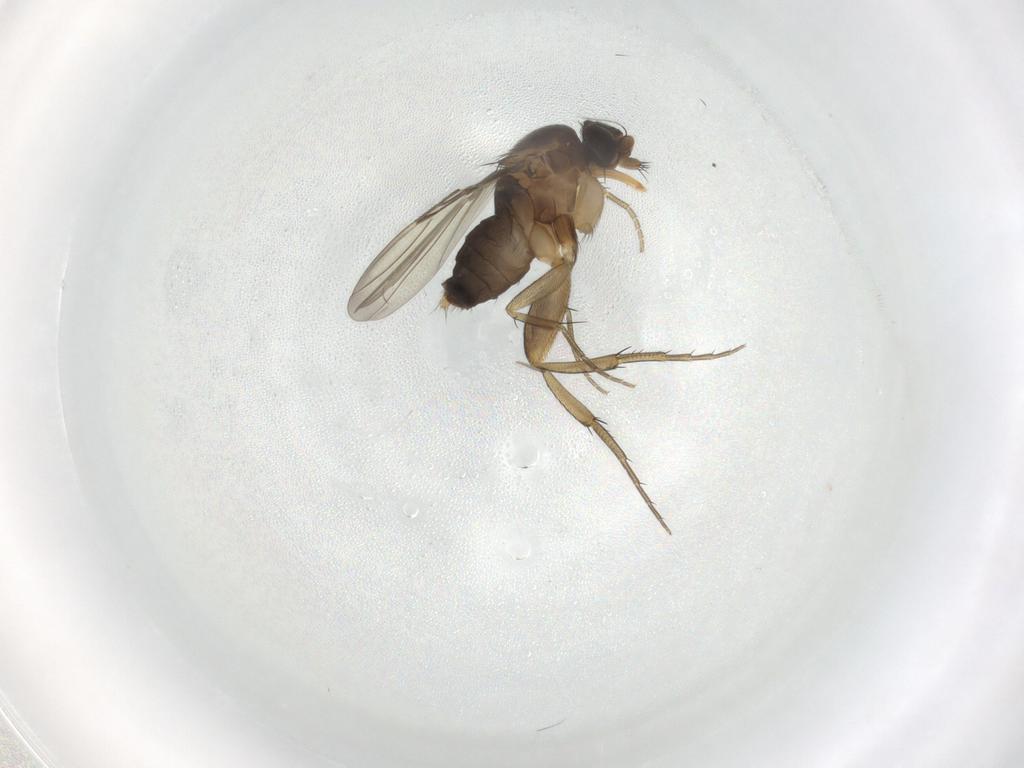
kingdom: Animalia
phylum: Arthropoda
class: Insecta
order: Diptera
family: Phoridae
